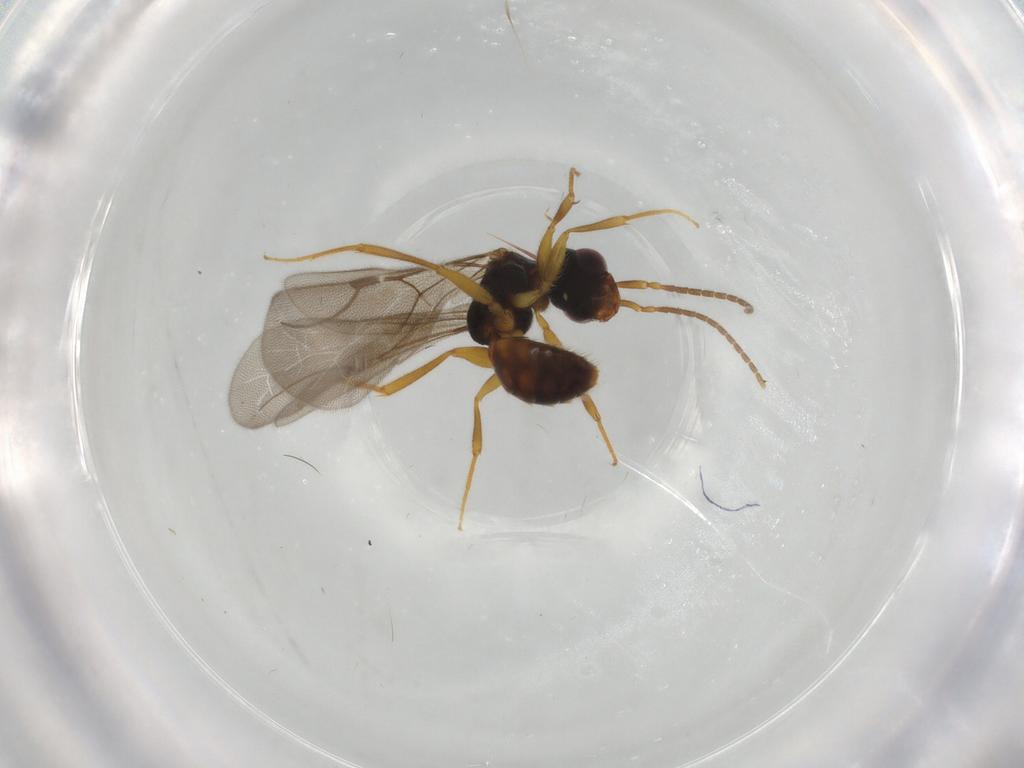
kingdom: Animalia
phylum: Arthropoda
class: Insecta
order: Hymenoptera
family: Bethylidae
